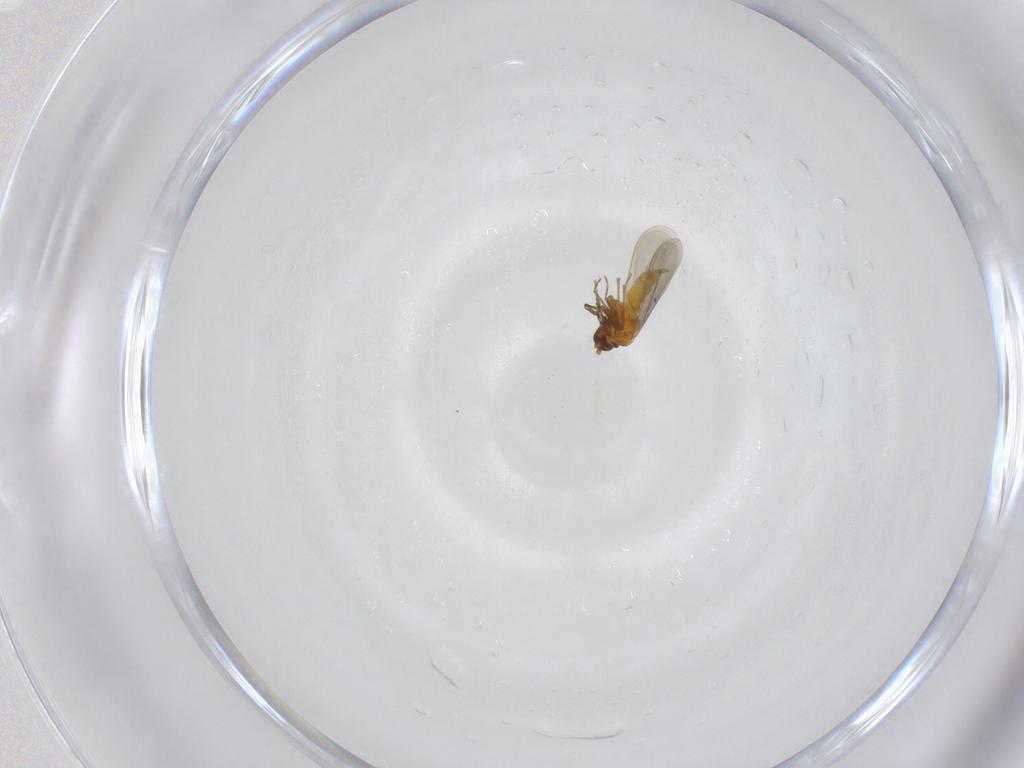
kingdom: Animalia
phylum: Arthropoda
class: Insecta
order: Hemiptera
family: Aleyrodidae
